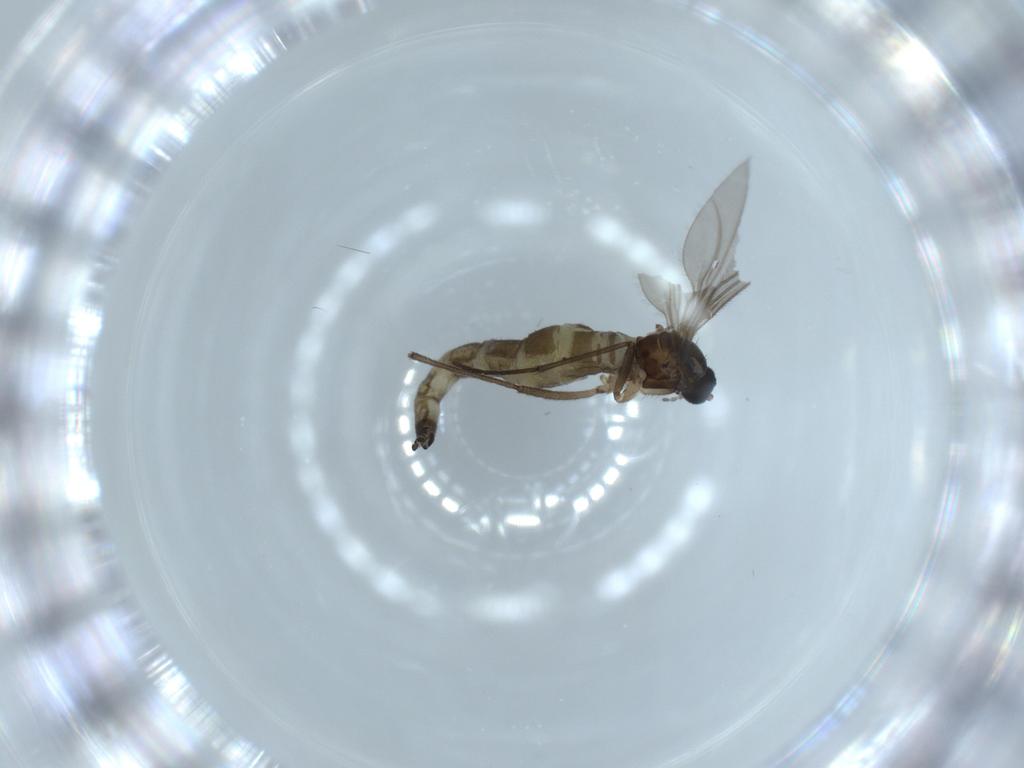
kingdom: Animalia
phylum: Arthropoda
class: Insecta
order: Diptera
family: Sciaridae
